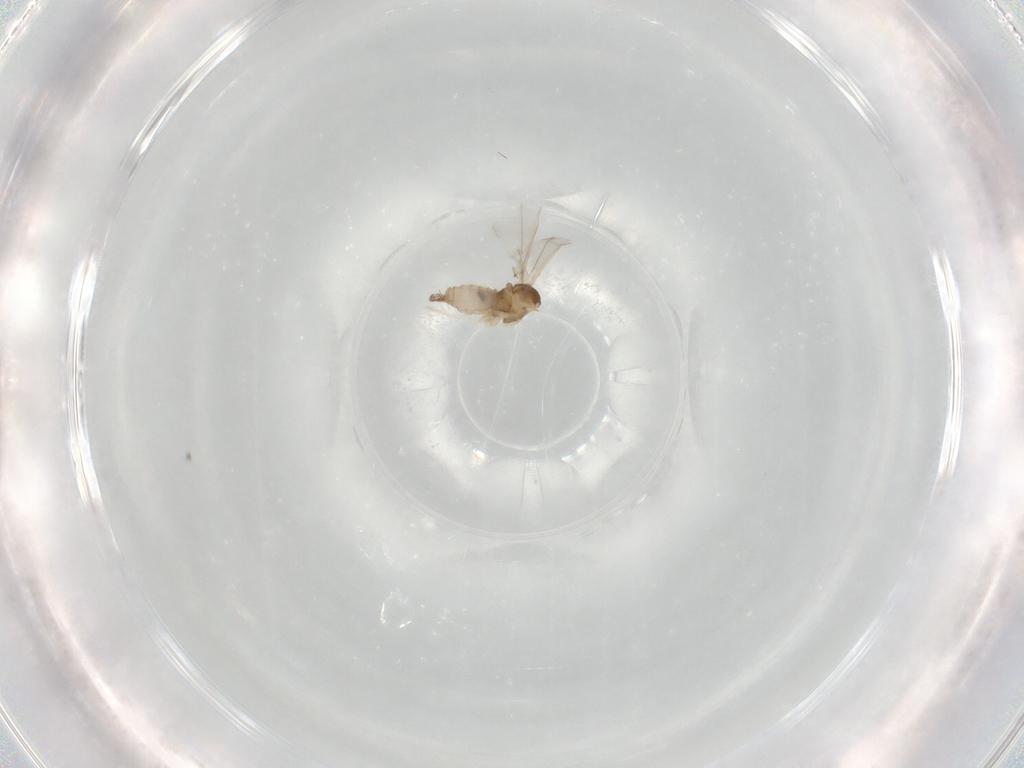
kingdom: Animalia
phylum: Arthropoda
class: Insecta
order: Diptera
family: Cecidomyiidae
